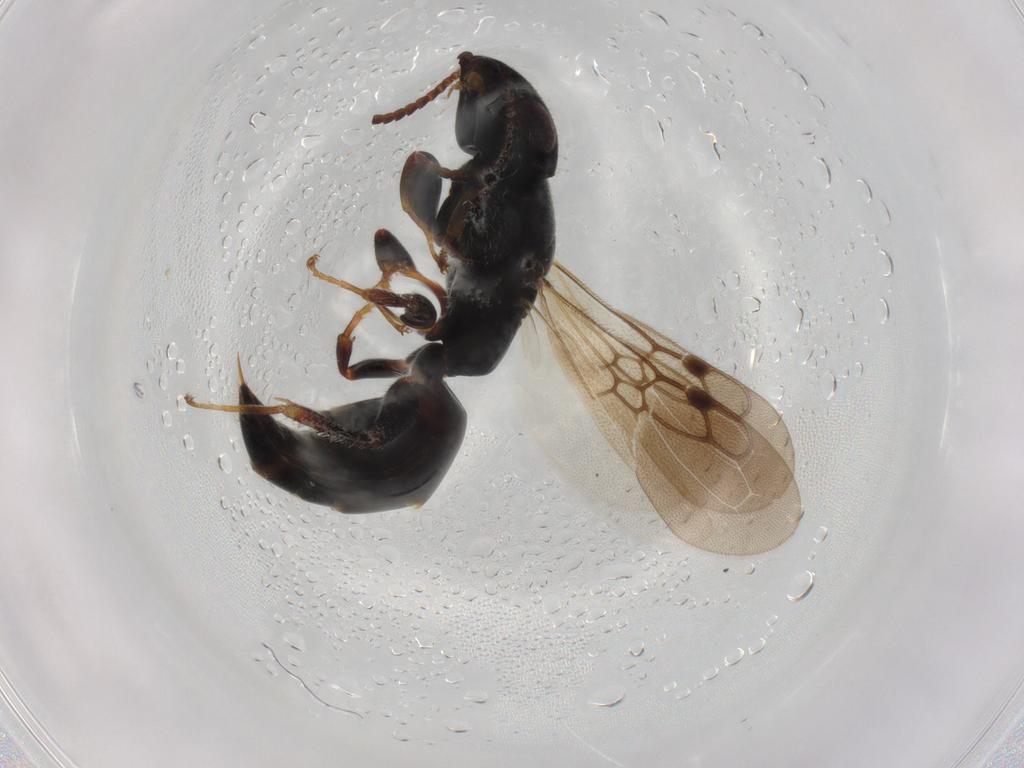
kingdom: Animalia
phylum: Arthropoda
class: Insecta
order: Hymenoptera
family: Bethylidae
